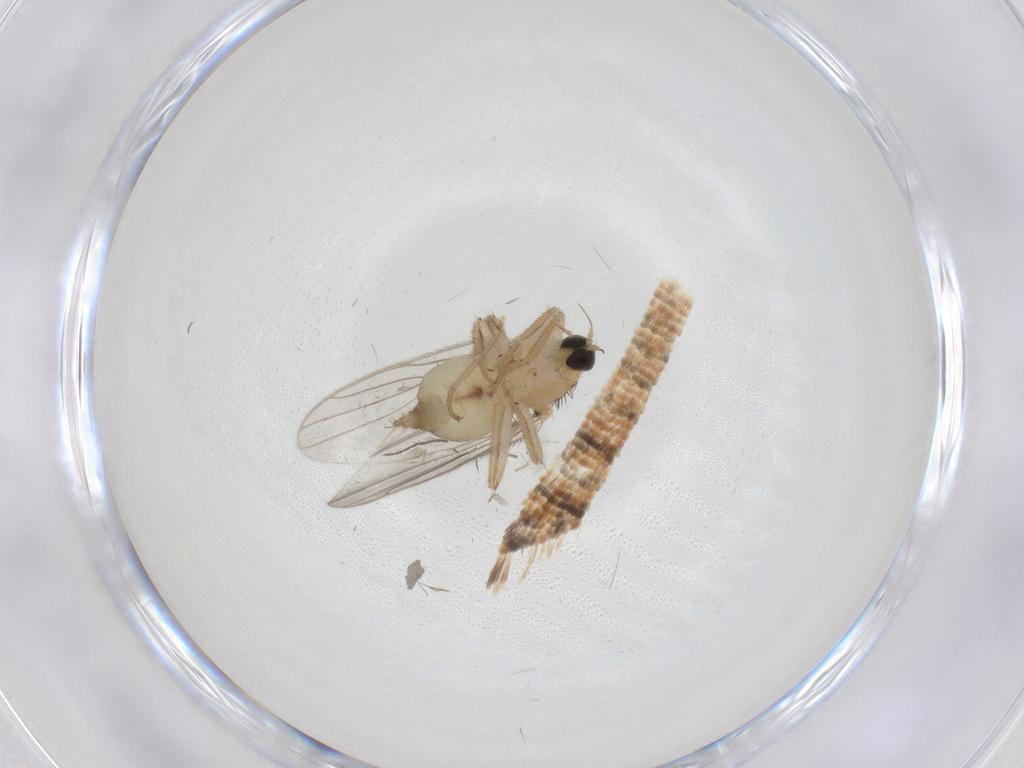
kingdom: Animalia
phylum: Arthropoda
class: Insecta
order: Diptera
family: Hybotidae
